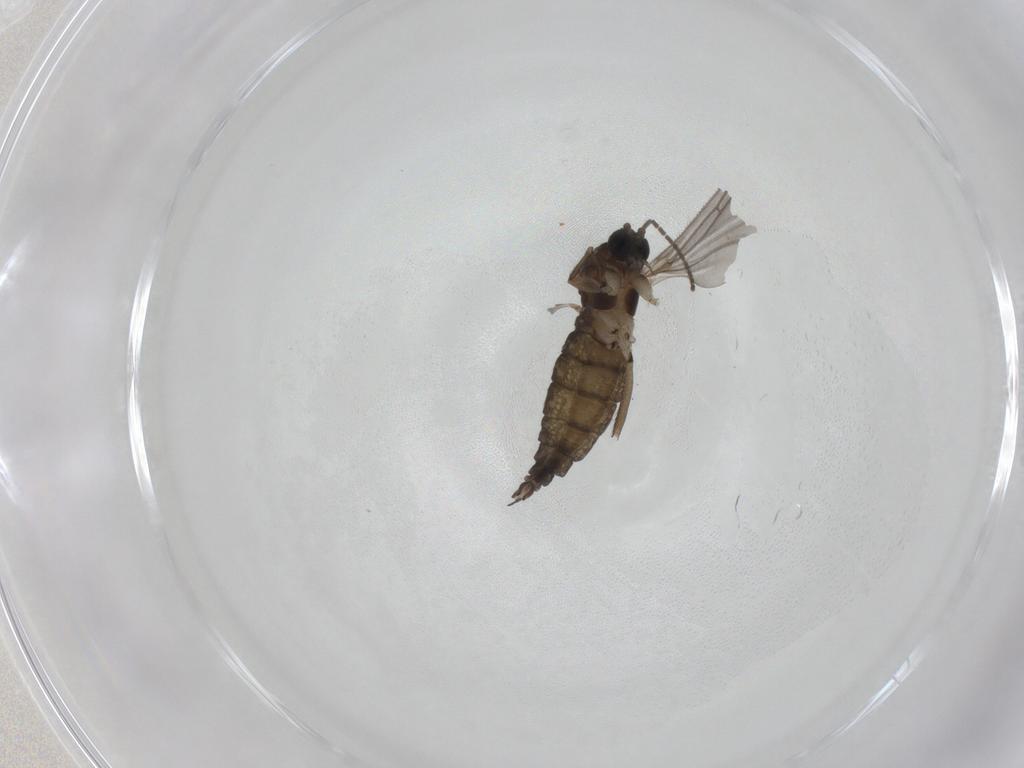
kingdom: Animalia
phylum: Arthropoda
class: Insecta
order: Diptera
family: Sciaridae
